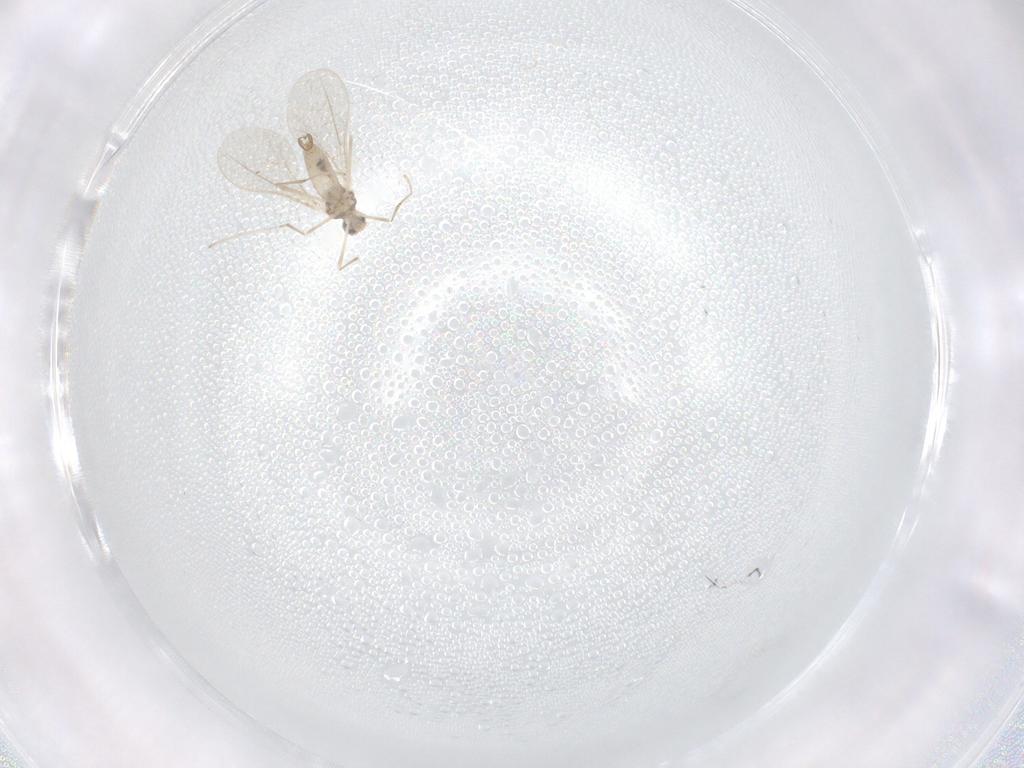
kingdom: Animalia
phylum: Arthropoda
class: Insecta
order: Diptera
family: Cecidomyiidae
